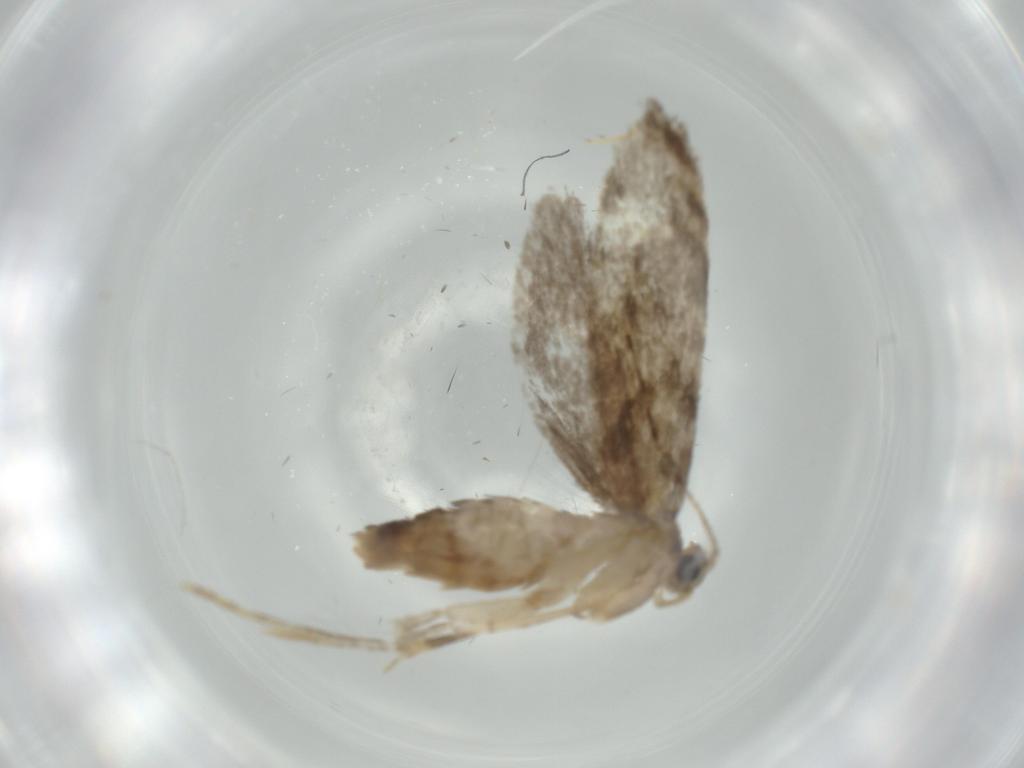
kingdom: Animalia
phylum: Arthropoda
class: Insecta
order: Lepidoptera
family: Tineidae
